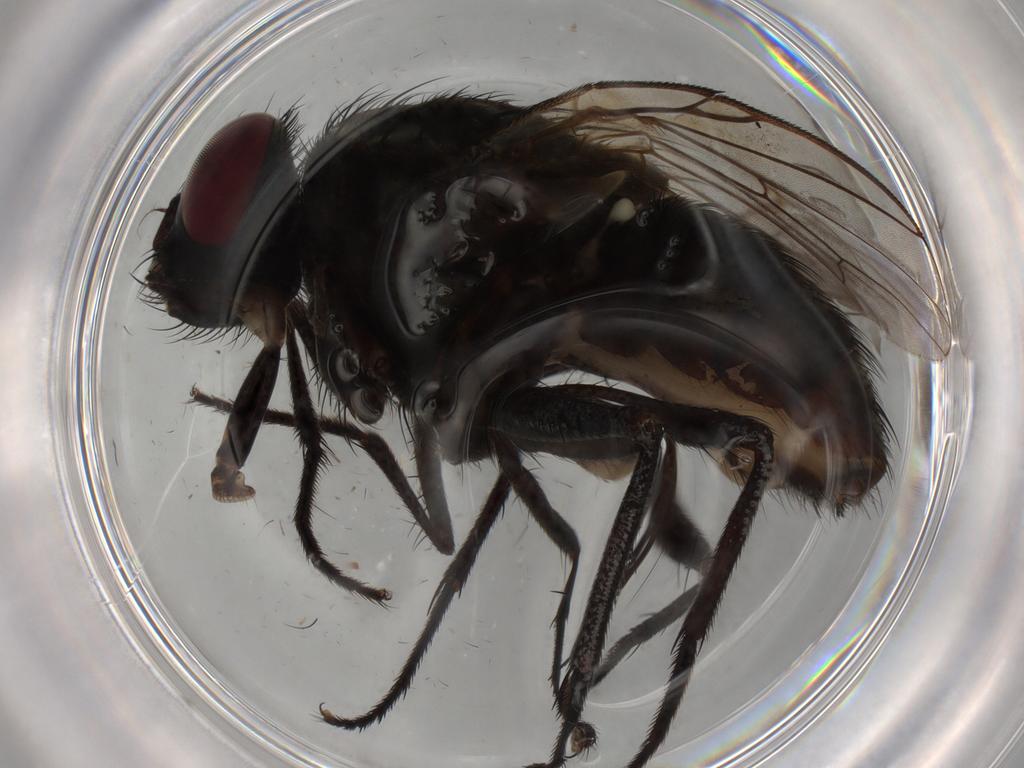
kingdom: Animalia
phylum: Arthropoda
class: Insecta
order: Diptera
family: Muscidae
